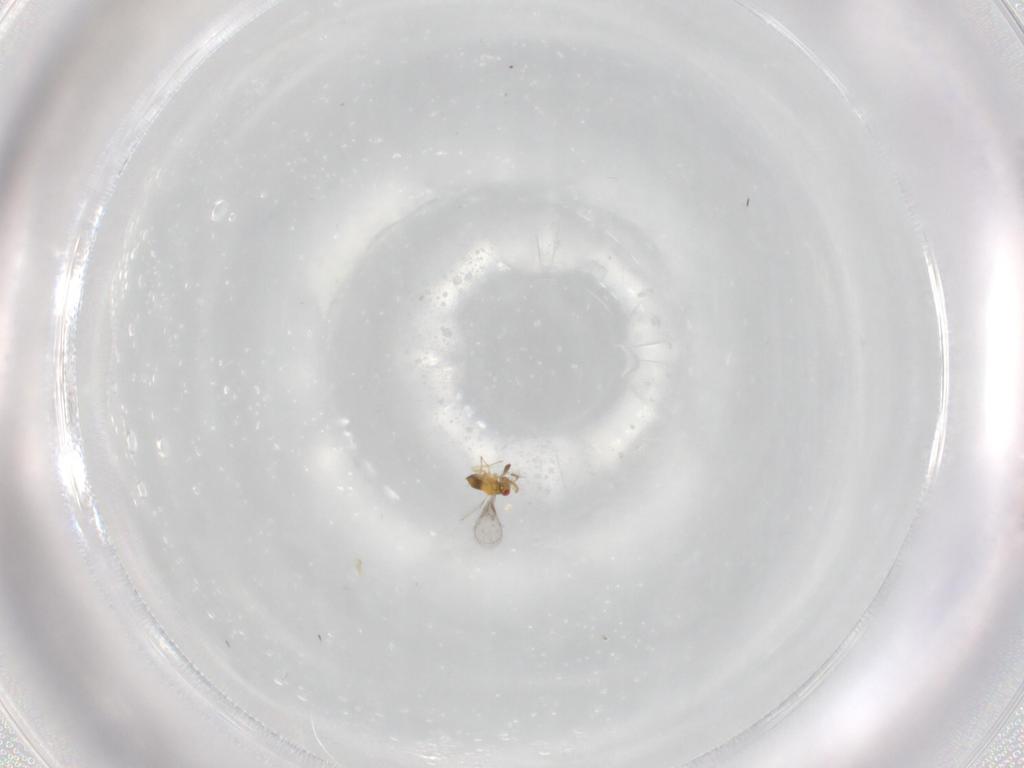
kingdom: Animalia
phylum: Arthropoda
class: Insecta
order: Hymenoptera
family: Trichogrammatidae
